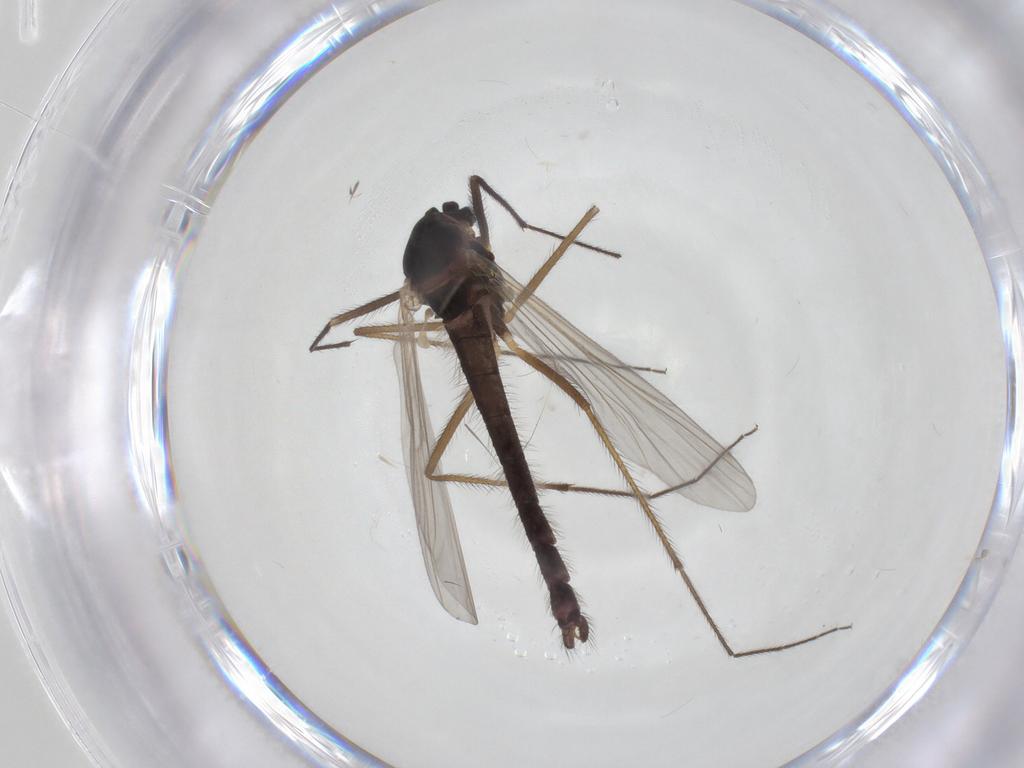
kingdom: Animalia
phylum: Arthropoda
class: Insecta
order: Diptera
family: Chironomidae
